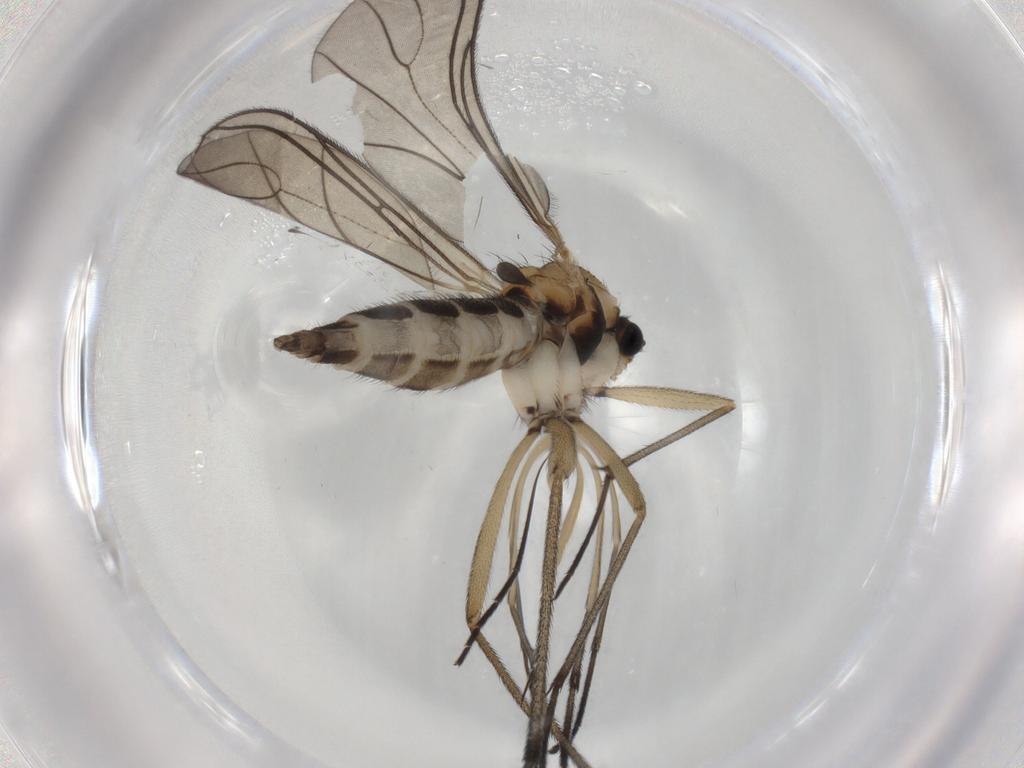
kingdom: Animalia
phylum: Arthropoda
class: Insecta
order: Diptera
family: Sciaridae
